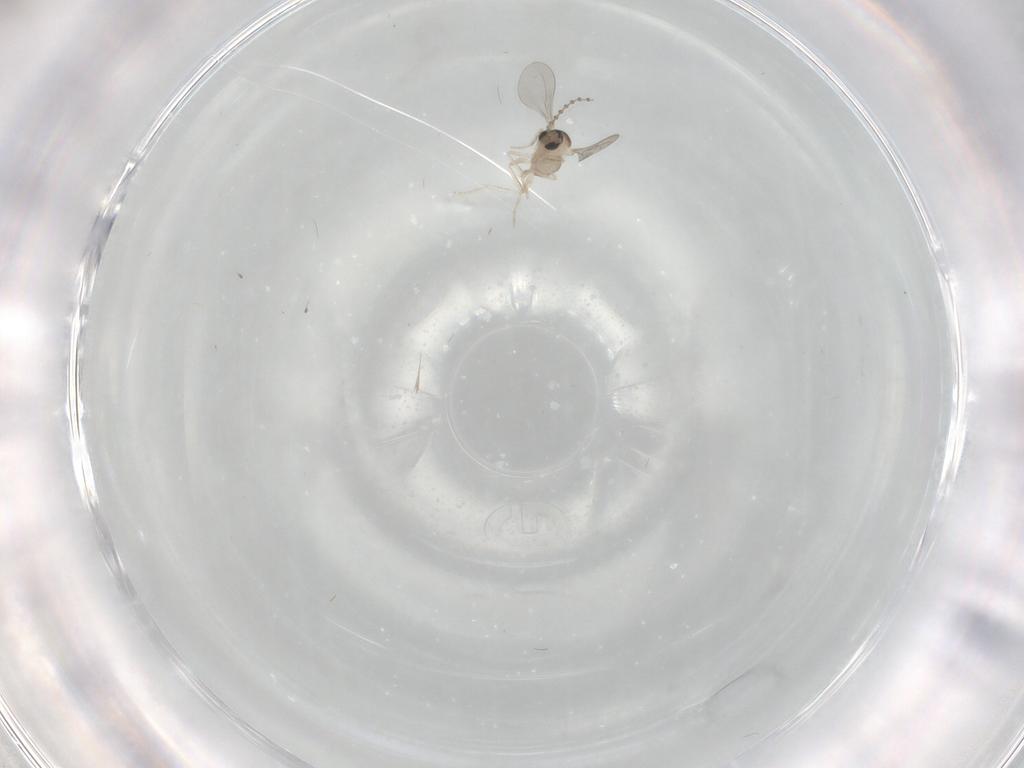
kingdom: Animalia
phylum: Arthropoda
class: Insecta
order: Diptera
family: Cecidomyiidae
